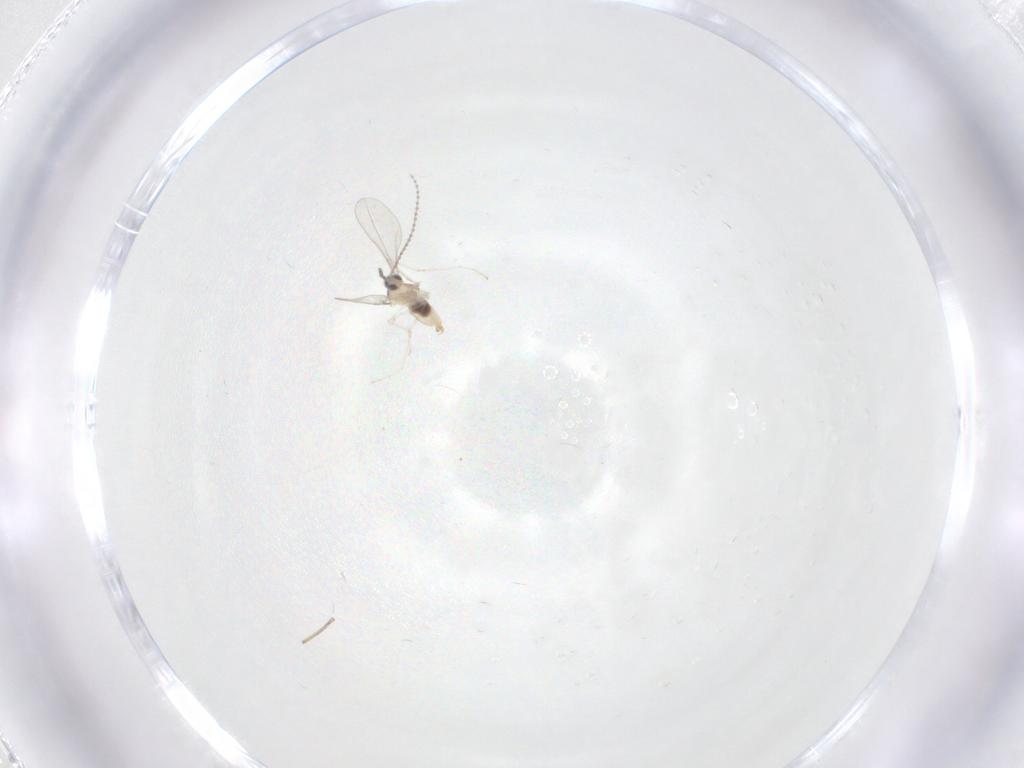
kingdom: Animalia
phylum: Arthropoda
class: Insecta
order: Diptera
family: Cecidomyiidae
